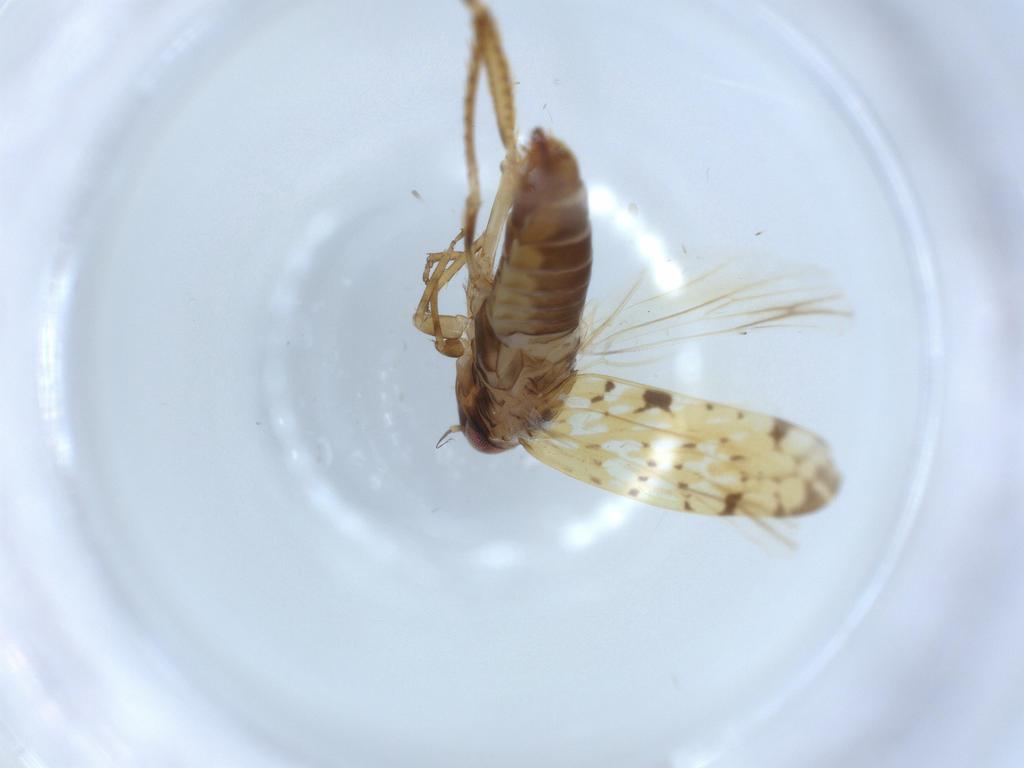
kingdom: Animalia
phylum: Arthropoda
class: Insecta
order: Hemiptera
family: Cicadellidae
